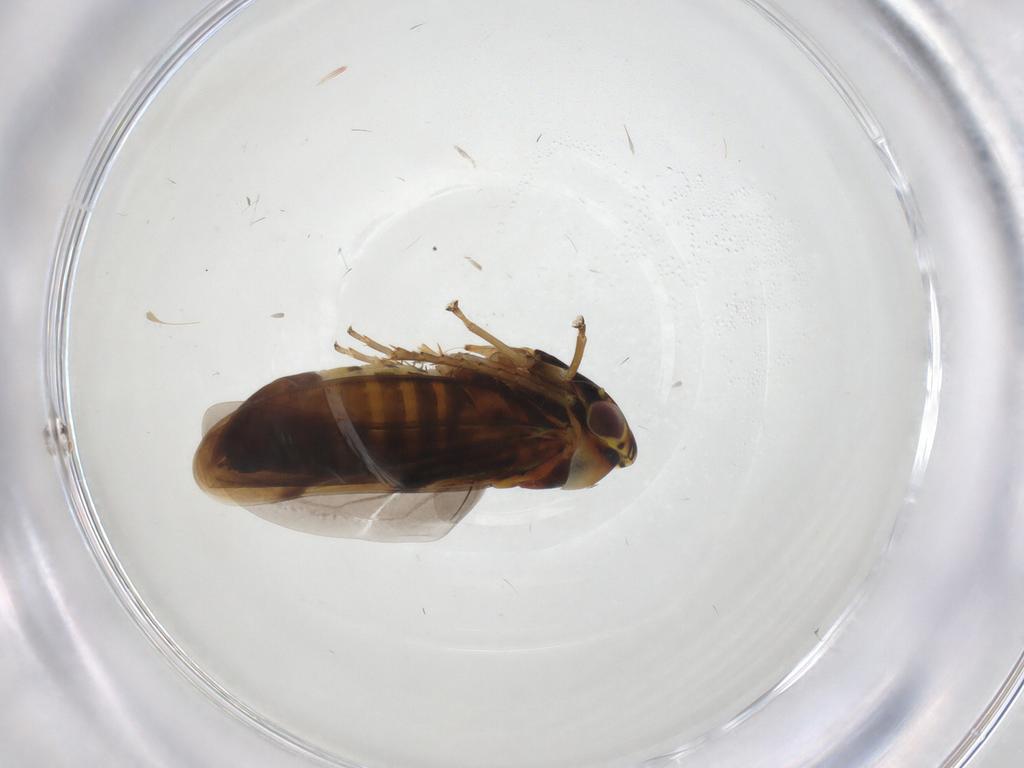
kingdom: Animalia
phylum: Arthropoda
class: Insecta
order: Hemiptera
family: Cicadellidae
